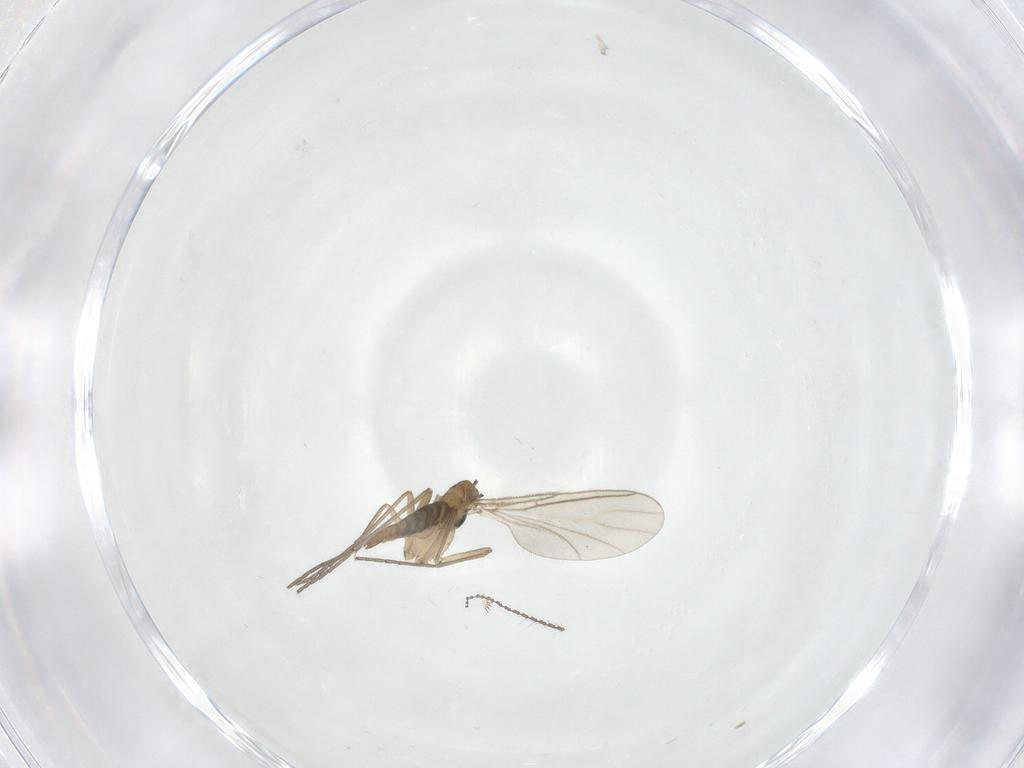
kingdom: Animalia
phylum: Arthropoda
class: Insecta
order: Diptera
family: Sciaridae
